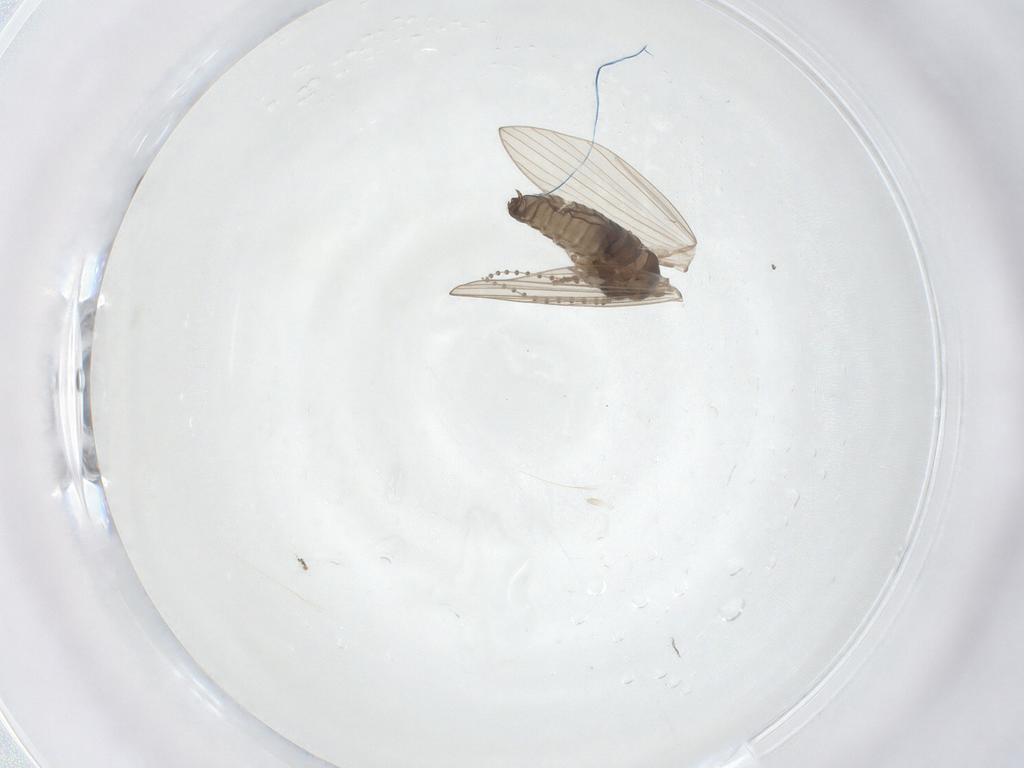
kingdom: Animalia
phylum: Arthropoda
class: Insecta
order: Diptera
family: Psychodidae
